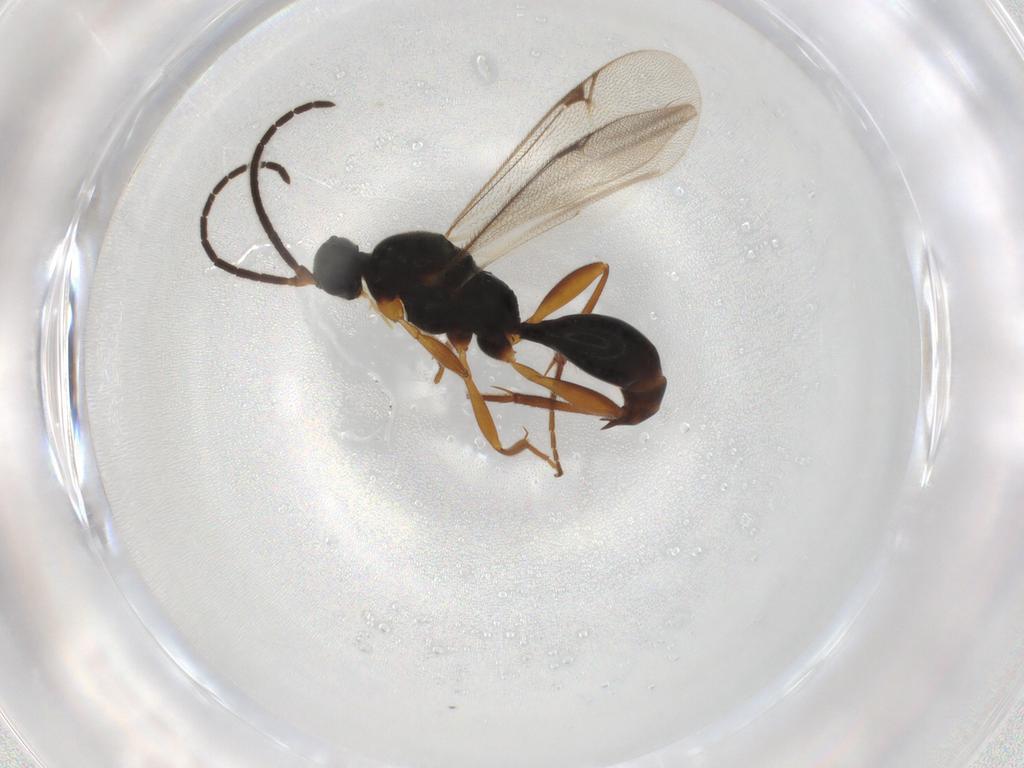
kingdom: Animalia
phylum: Arthropoda
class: Insecta
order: Hymenoptera
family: Proctotrupidae
